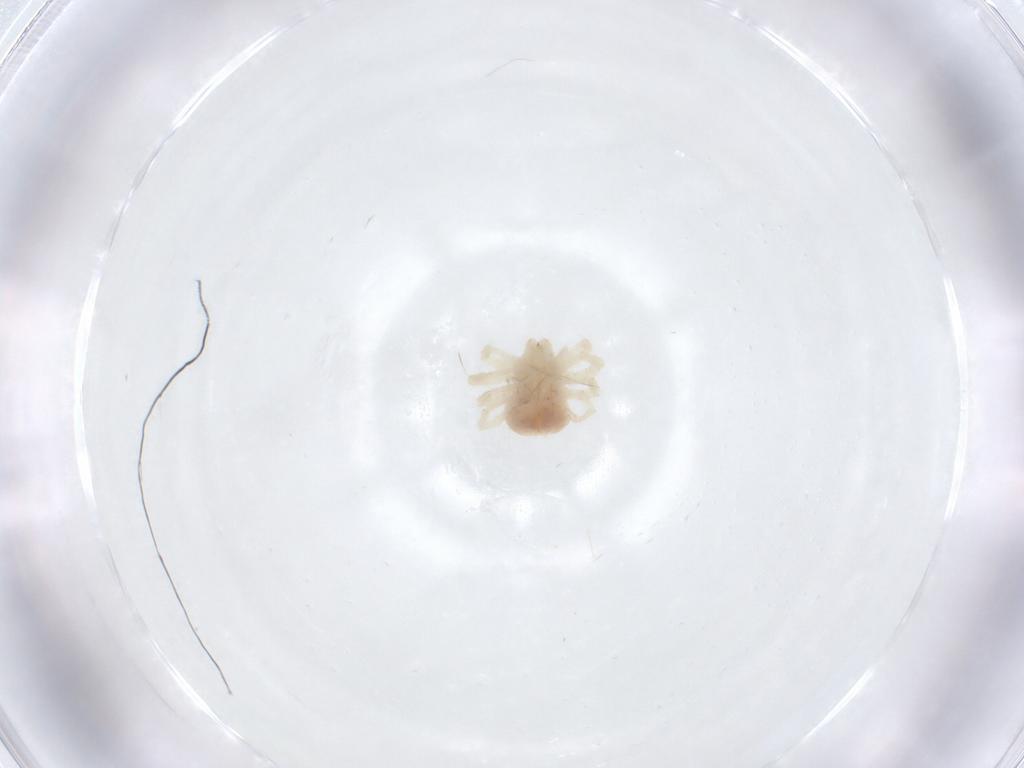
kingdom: Animalia
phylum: Arthropoda
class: Arachnida
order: Trombidiformes
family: Anystidae
